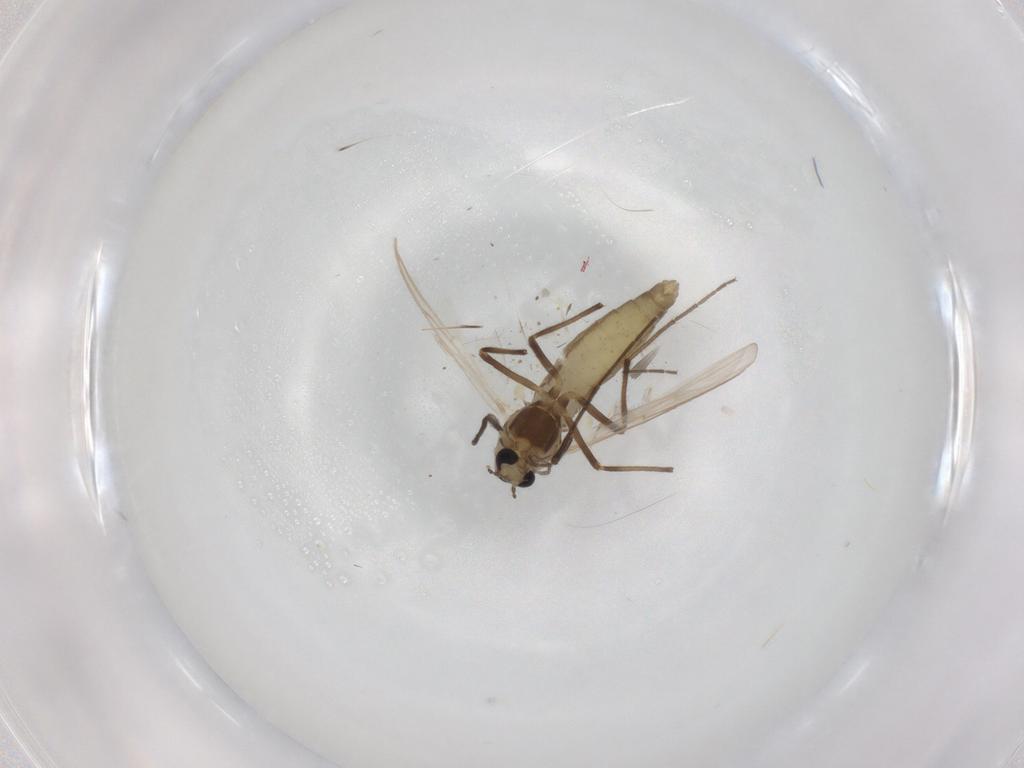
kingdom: Animalia
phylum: Arthropoda
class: Insecta
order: Diptera
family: Chironomidae
